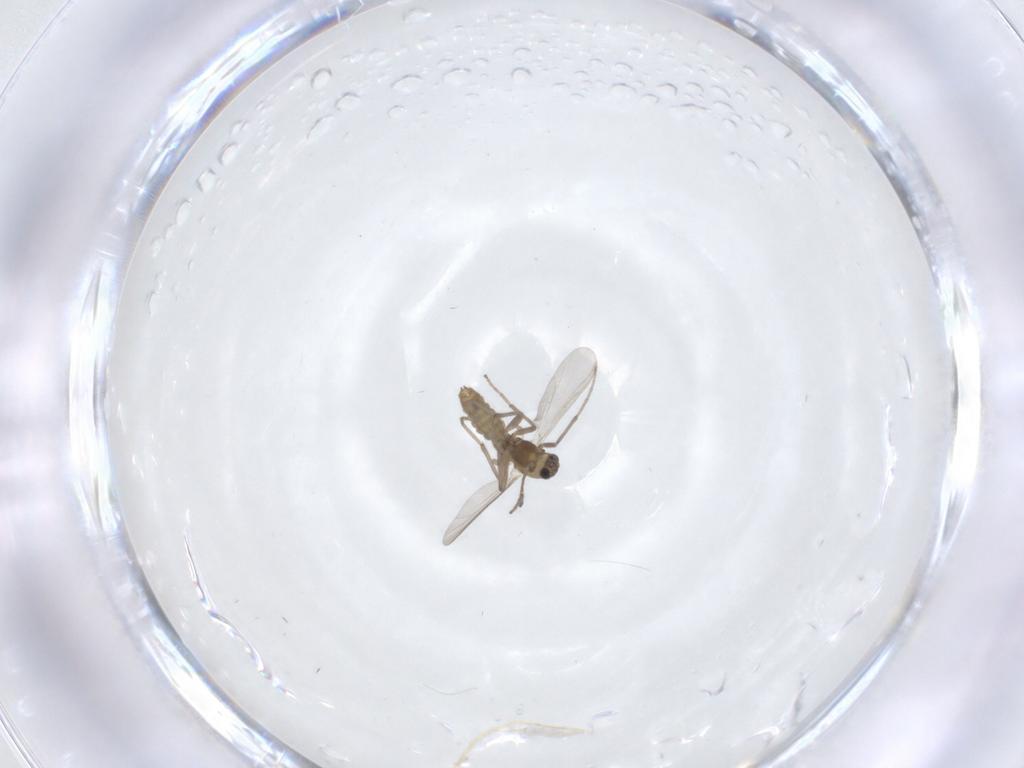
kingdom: Animalia
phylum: Arthropoda
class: Insecta
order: Diptera
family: Chironomidae
